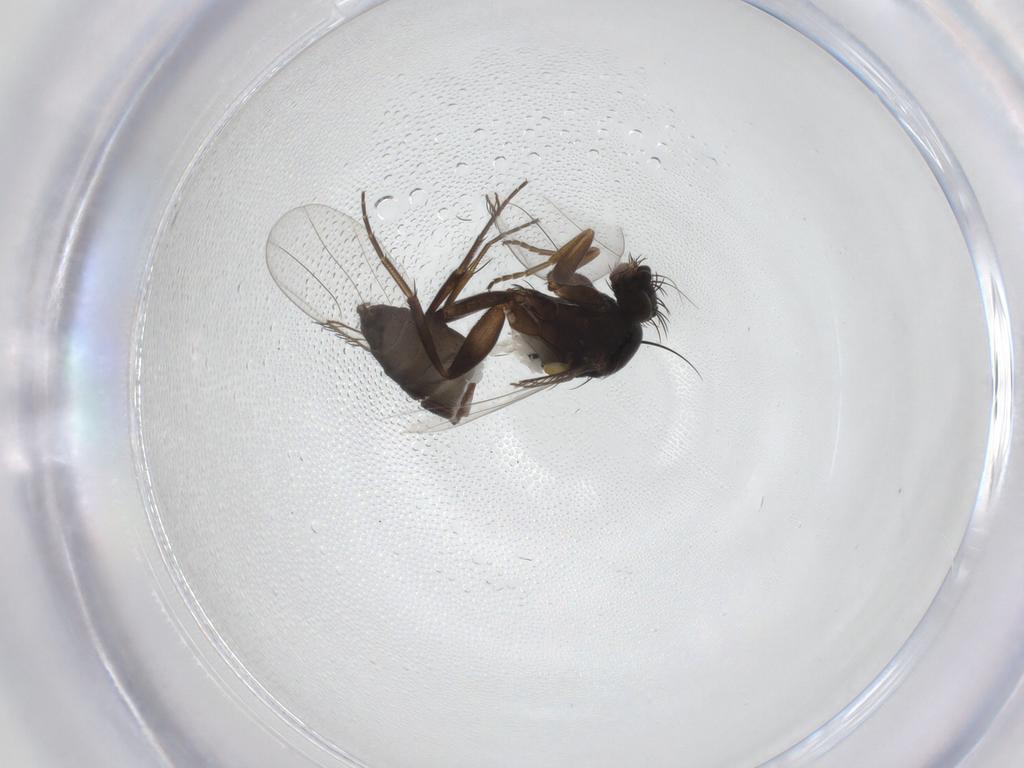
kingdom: Animalia
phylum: Arthropoda
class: Insecta
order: Diptera
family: Phoridae
